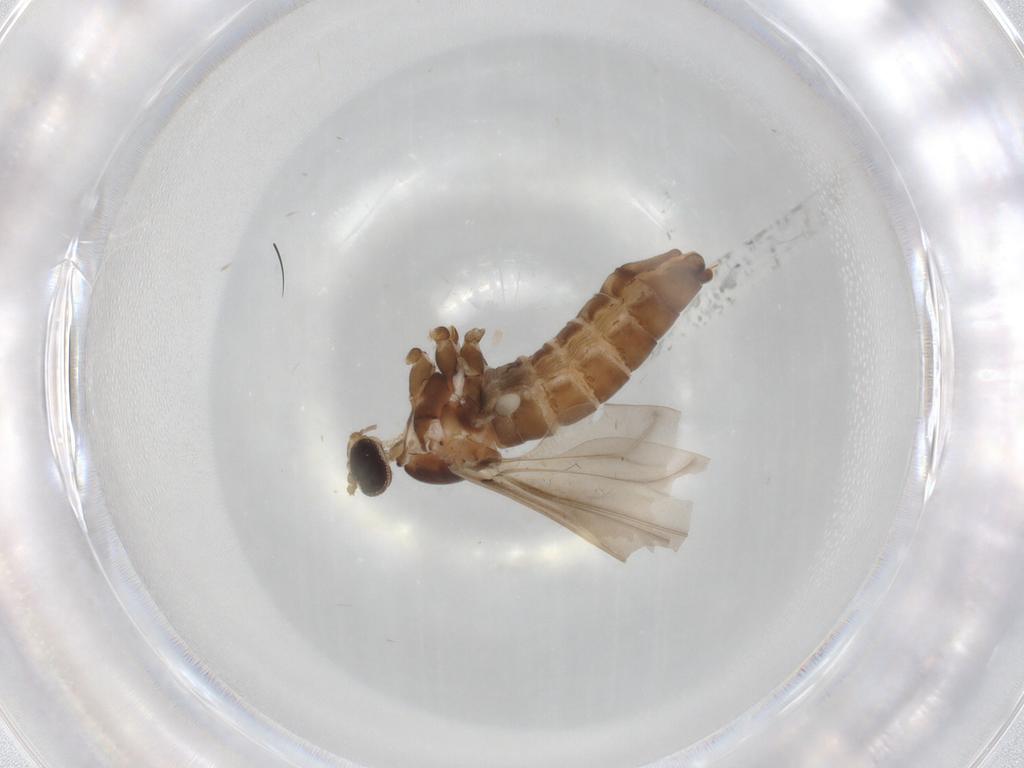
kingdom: Animalia
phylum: Arthropoda
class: Insecta
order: Diptera
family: Cecidomyiidae
